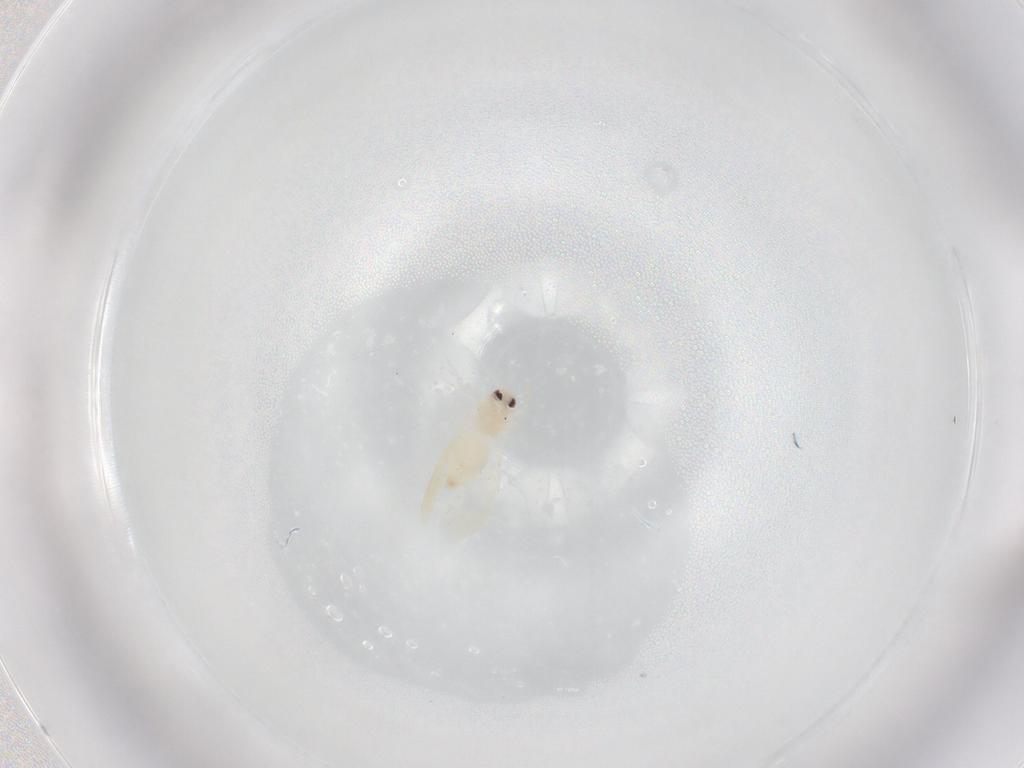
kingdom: Animalia
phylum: Arthropoda
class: Insecta
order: Hemiptera
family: Aleyrodidae
